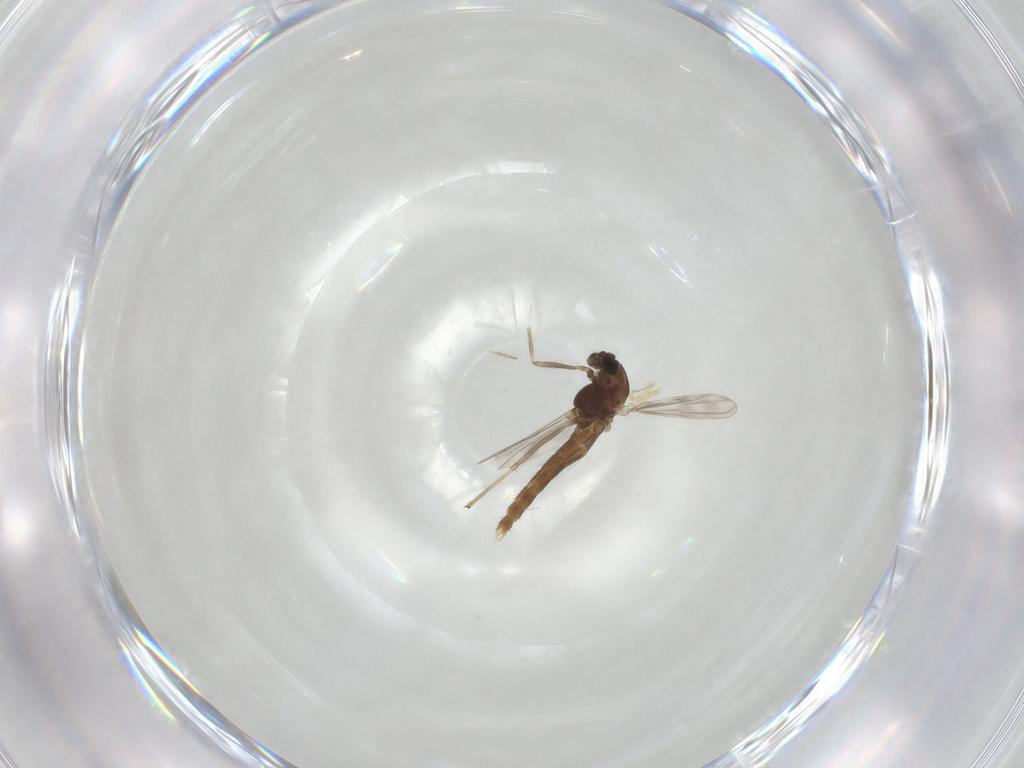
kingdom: Animalia
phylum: Arthropoda
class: Insecta
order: Diptera
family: Chironomidae
